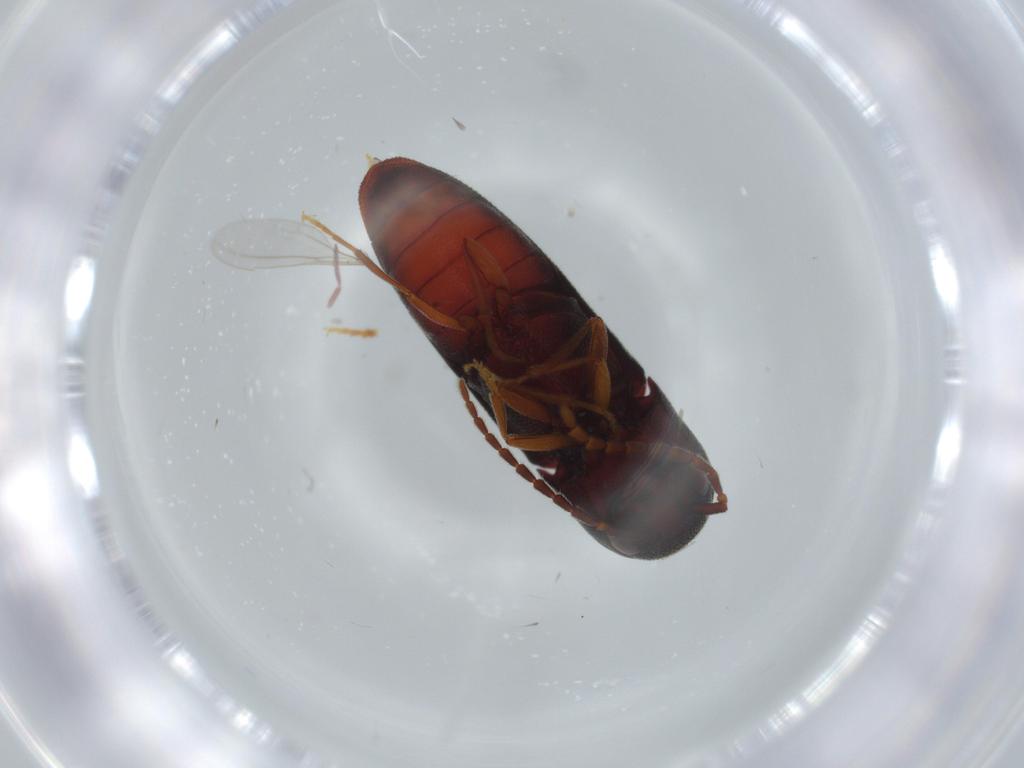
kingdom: Animalia
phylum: Arthropoda
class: Insecta
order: Coleoptera
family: Eucnemidae
